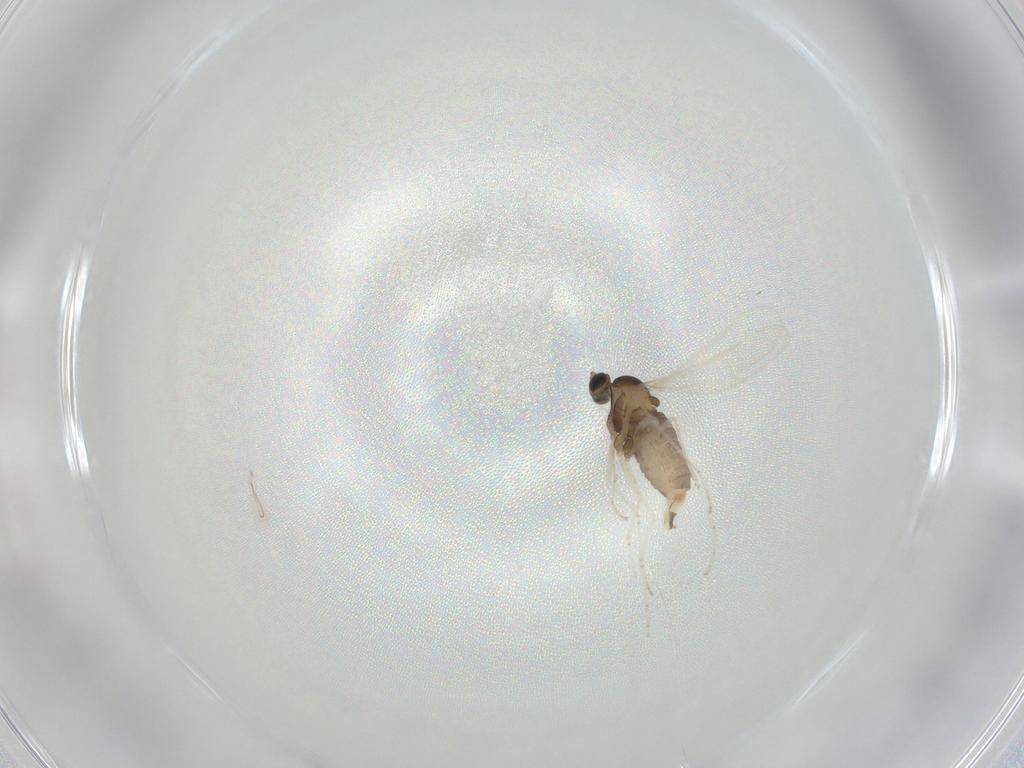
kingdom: Animalia
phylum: Arthropoda
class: Insecta
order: Diptera
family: Cecidomyiidae
